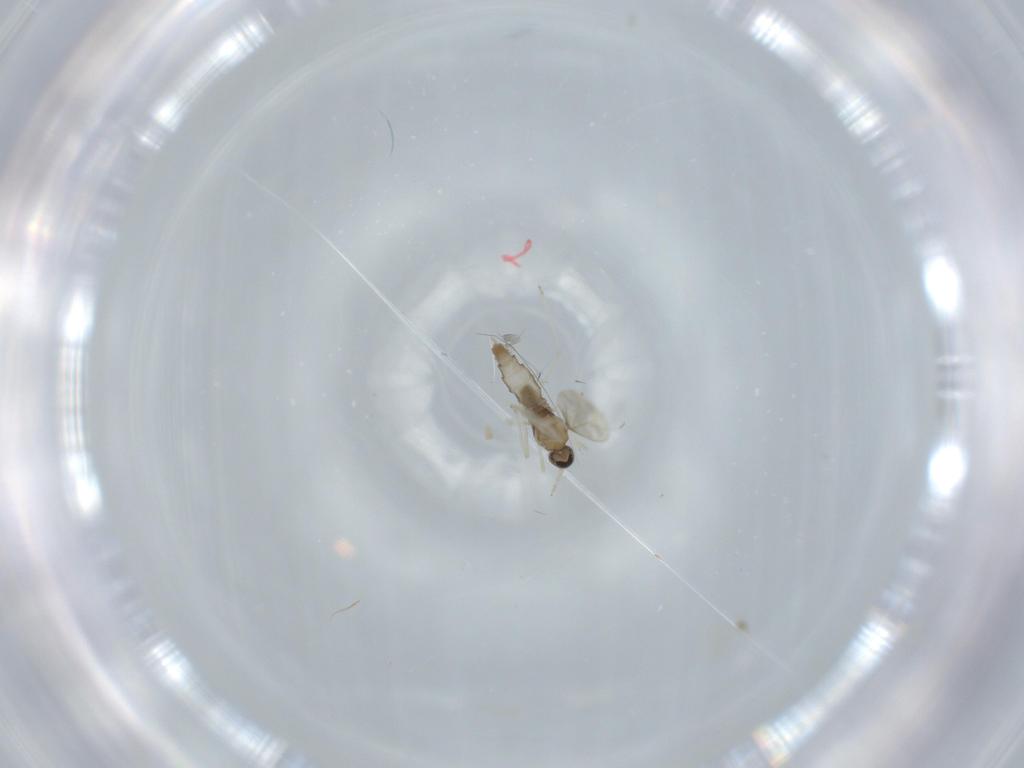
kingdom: Animalia
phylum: Arthropoda
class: Insecta
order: Diptera
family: Cecidomyiidae
